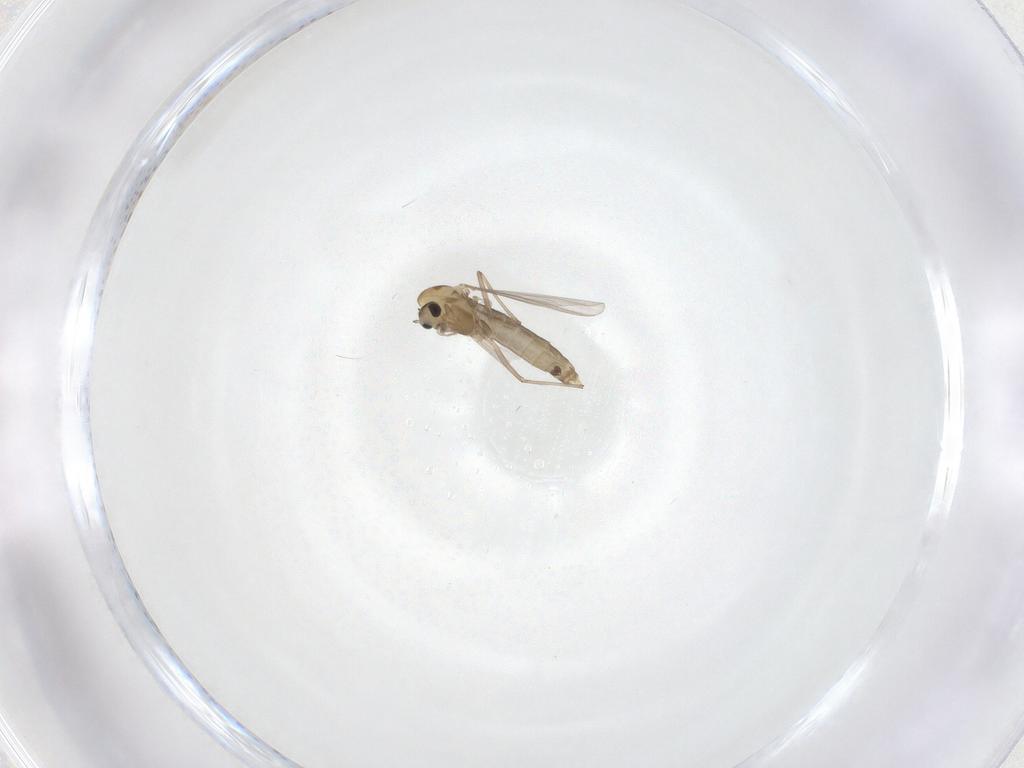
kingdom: Animalia
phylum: Arthropoda
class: Insecta
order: Diptera
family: Chironomidae
